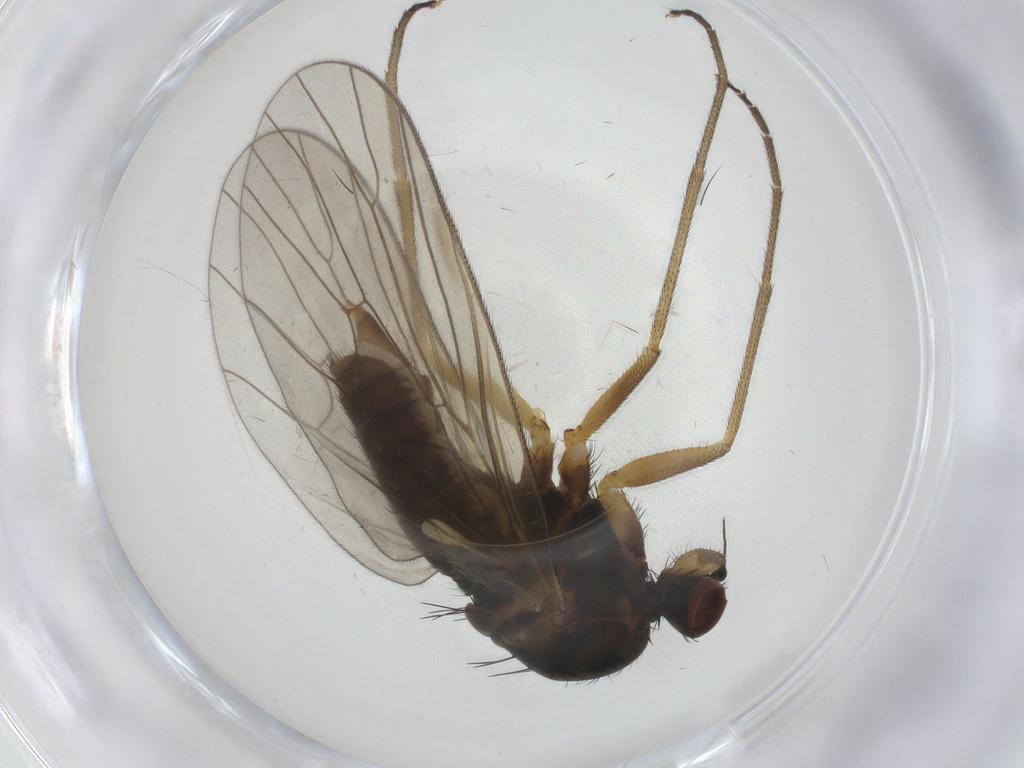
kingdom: Animalia
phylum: Arthropoda
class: Insecta
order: Diptera
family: Brachystomatidae
